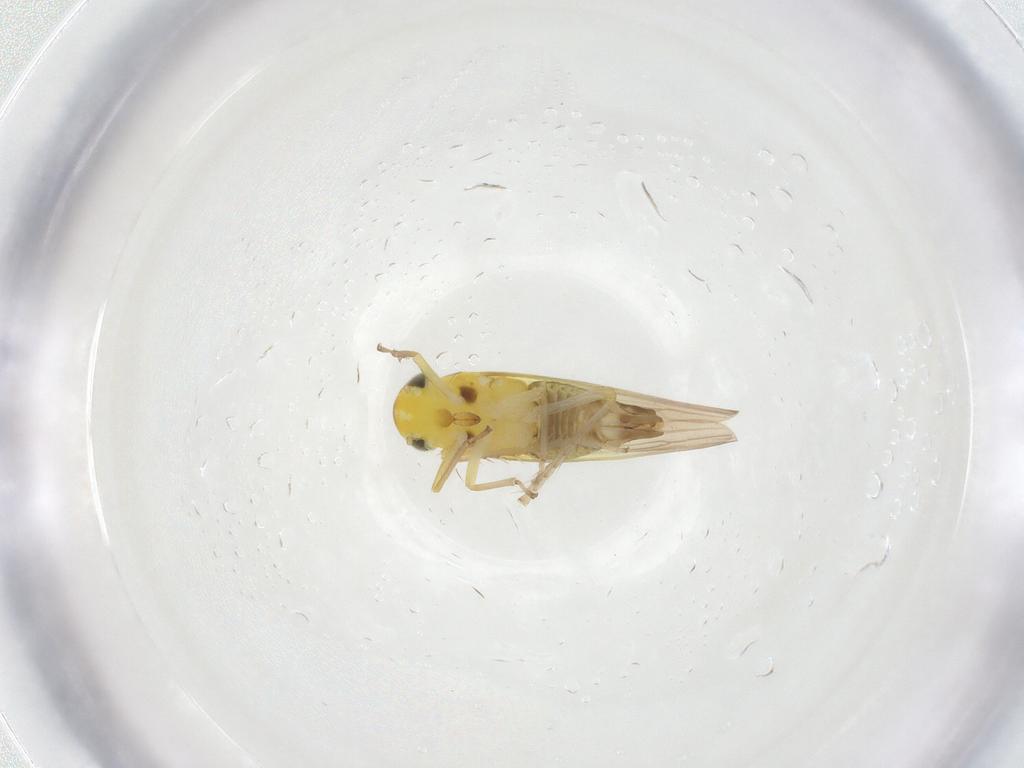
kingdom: Animalia
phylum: Arthropoda
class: Insecta
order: Hemiptera
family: Cicadellidae
